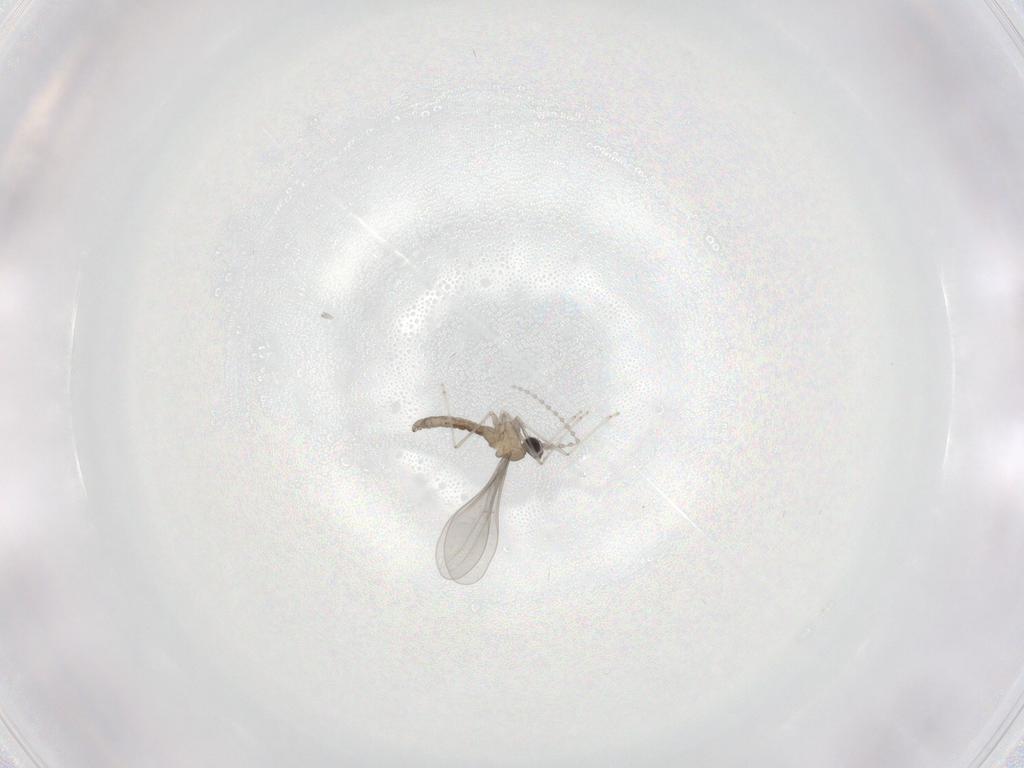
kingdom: Animalia
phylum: Arthropoda
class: Insecta
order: Diptera
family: Cecidomyiidae
